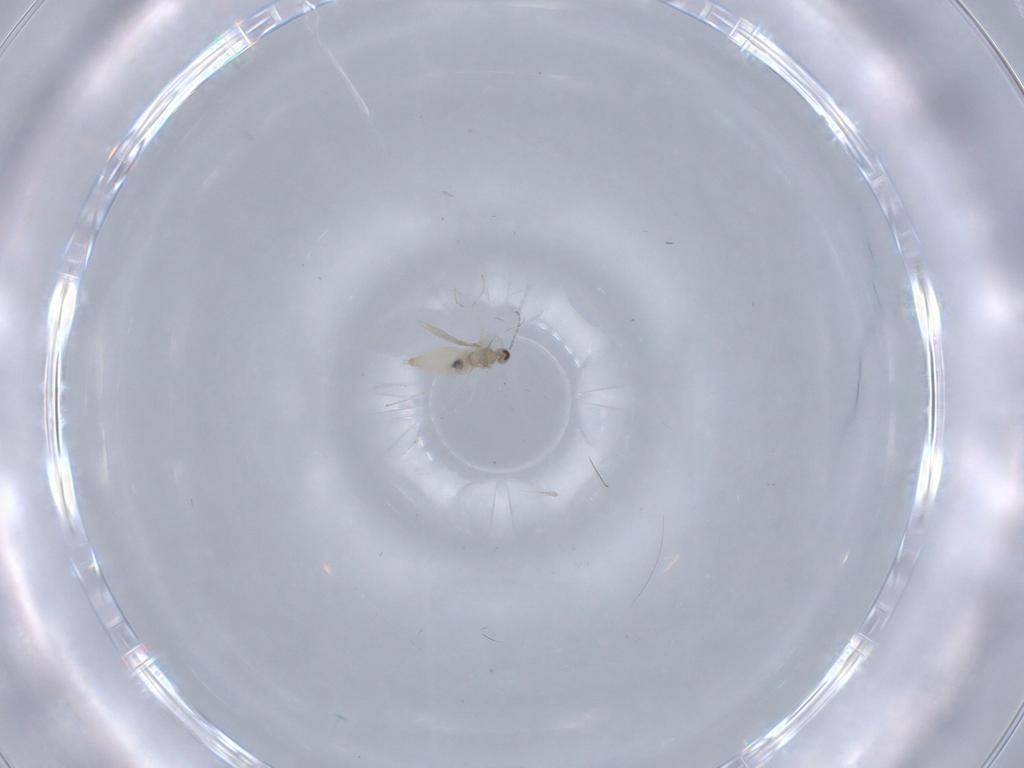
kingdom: Animalia
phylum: Arthropoda
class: Insecta
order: Diptera
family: Cecidomyiidae
